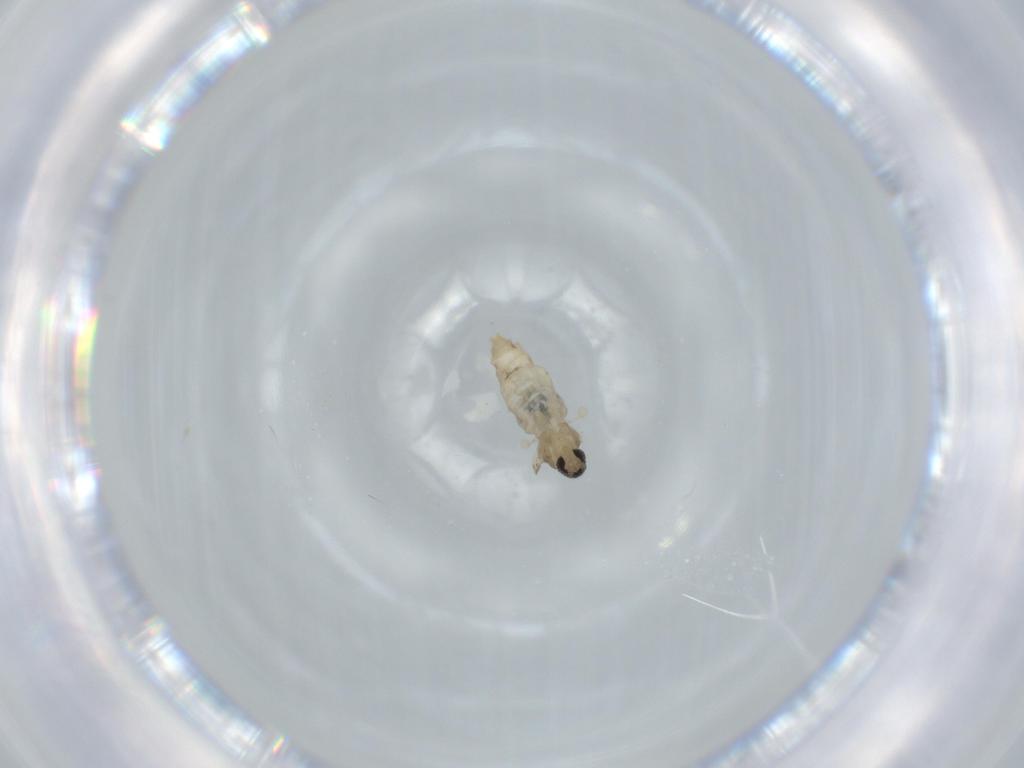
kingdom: Animalia
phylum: Arthropoda
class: Insecta
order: Diptera
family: Cecidomyiidae
